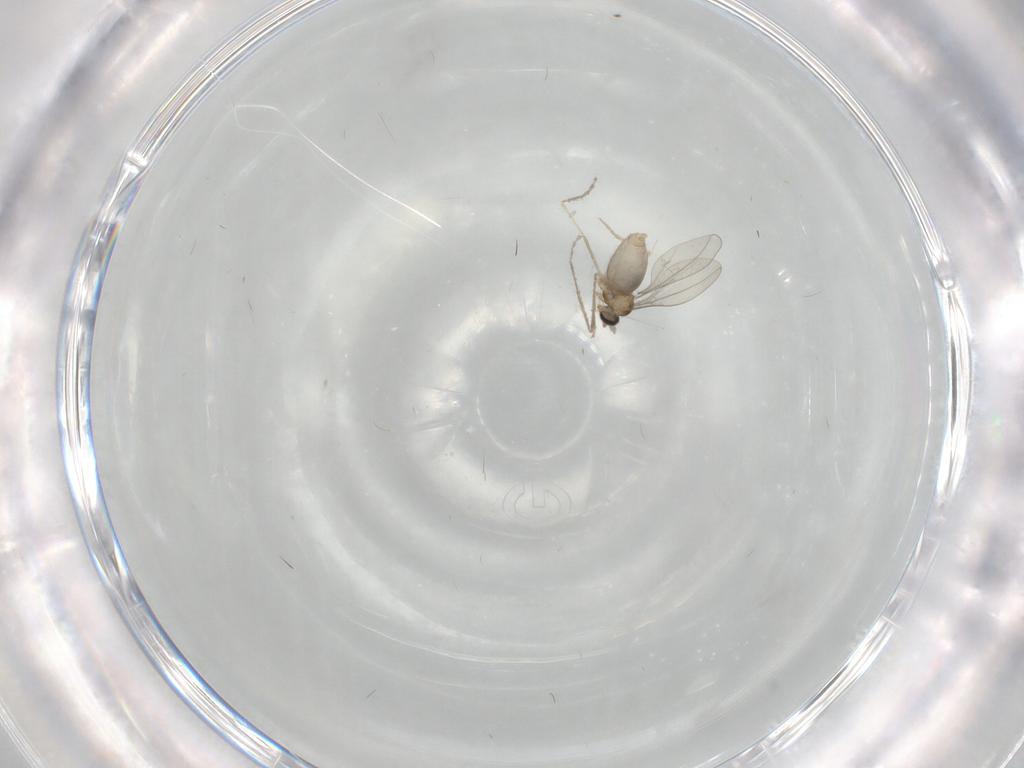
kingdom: Animalia
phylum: Arthropoda
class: Insecta
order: Diptera
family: Cecidomyiidae
